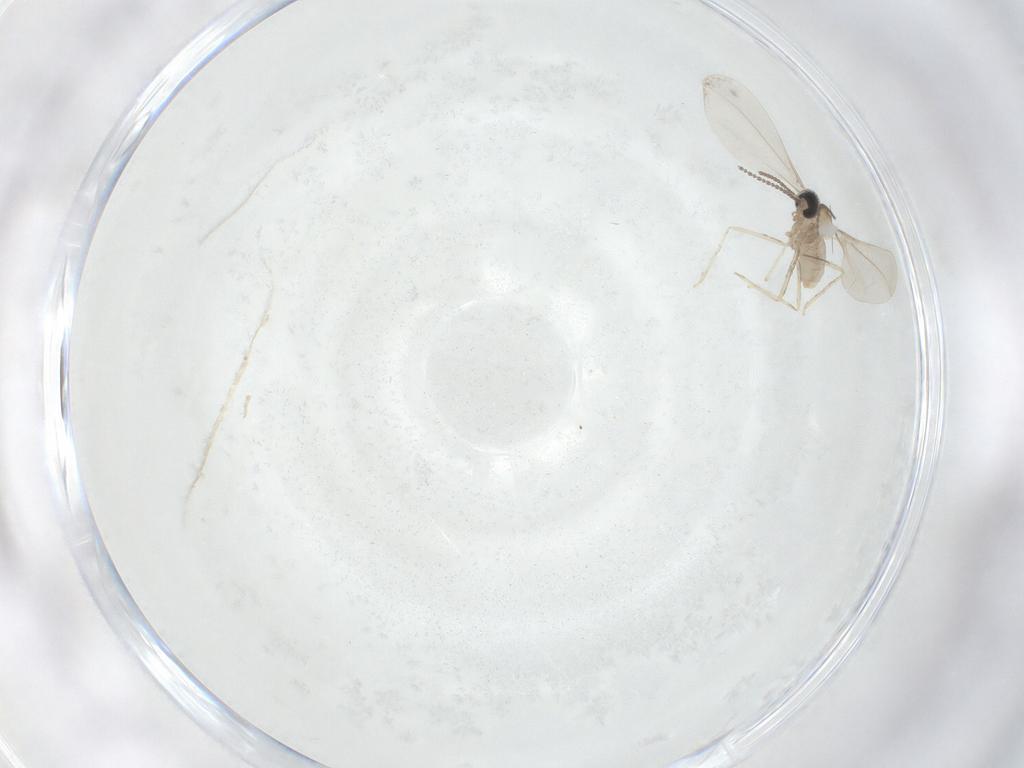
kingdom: Animalia
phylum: Arthropoda
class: Insecta
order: Diptera
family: Cecidomyiidae
